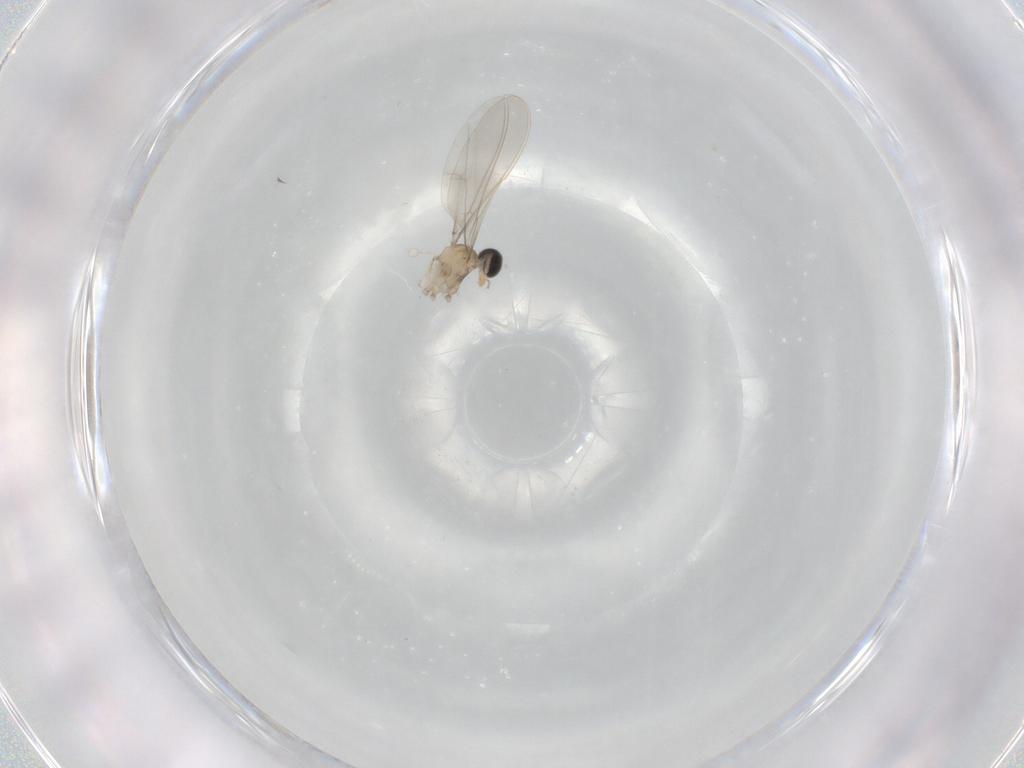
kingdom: Animalia
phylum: Arthropoda
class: Insecta
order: Diptera
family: Cecidomyiidae
